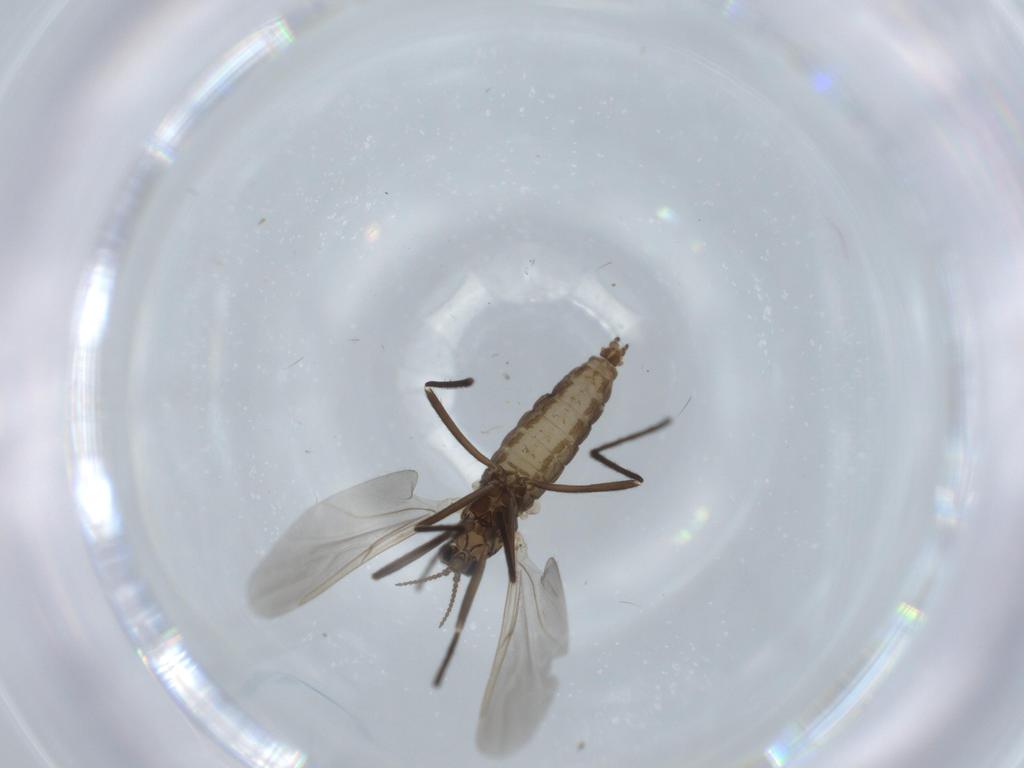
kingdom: Animalia
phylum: Arthropoda
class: Insecta
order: Diptera
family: Cecidomyiidae
